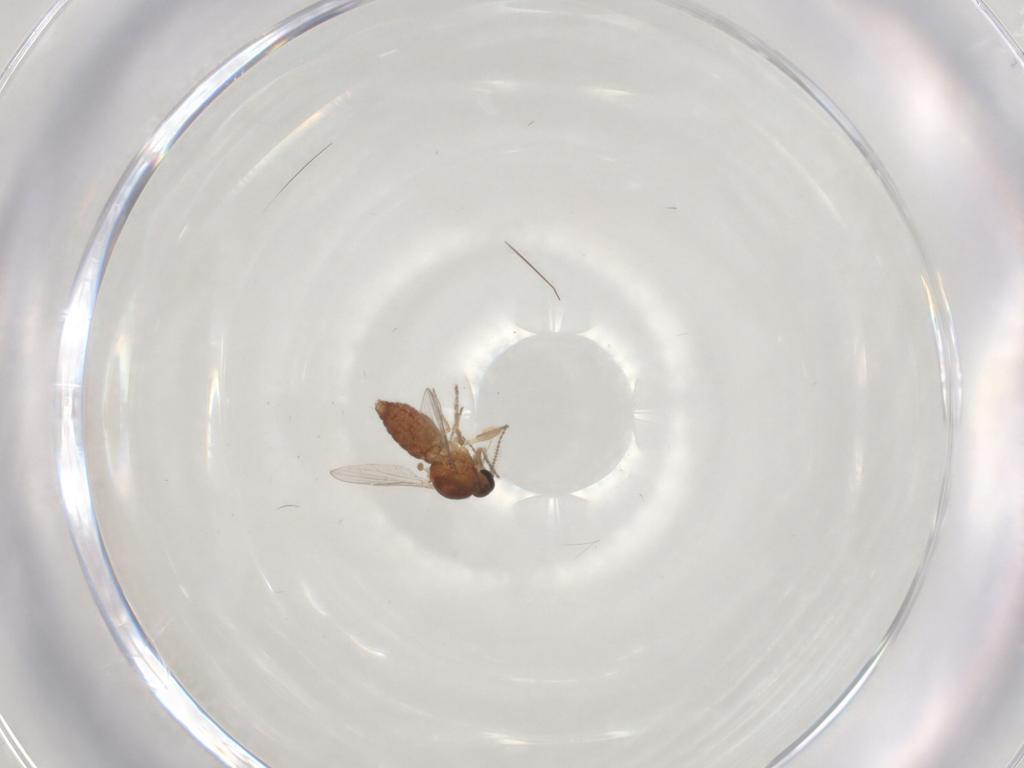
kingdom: Animalia
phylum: Arthropoda
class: Insecta
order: Diptera
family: Ceratopogonidae
